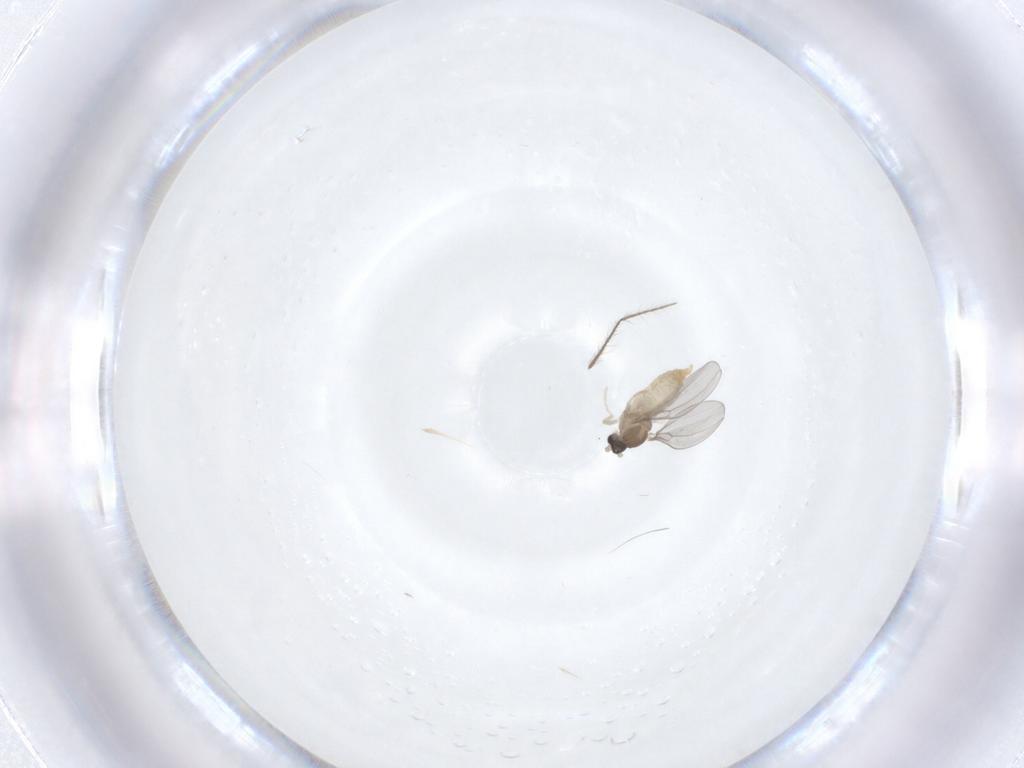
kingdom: Animalia
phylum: Arthropoda
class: Insecta
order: Diptera
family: Cecidomyiidae
